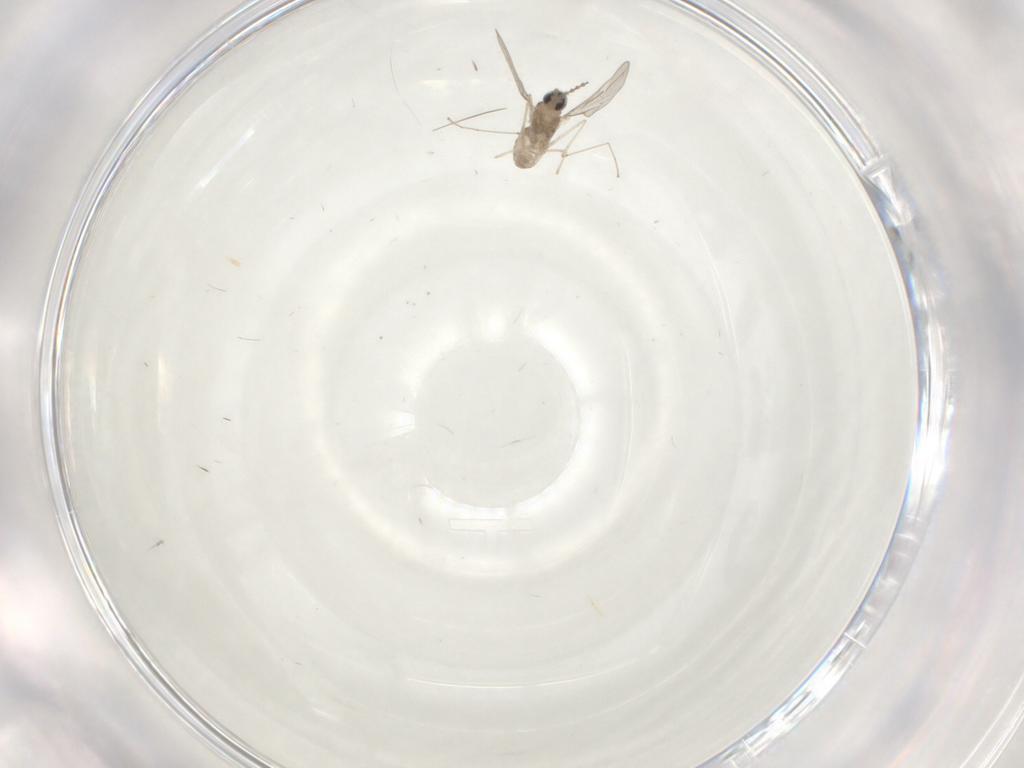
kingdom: Animalia
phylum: Arthropoda
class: Insecta
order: Diptera
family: Cecidomyiidae
